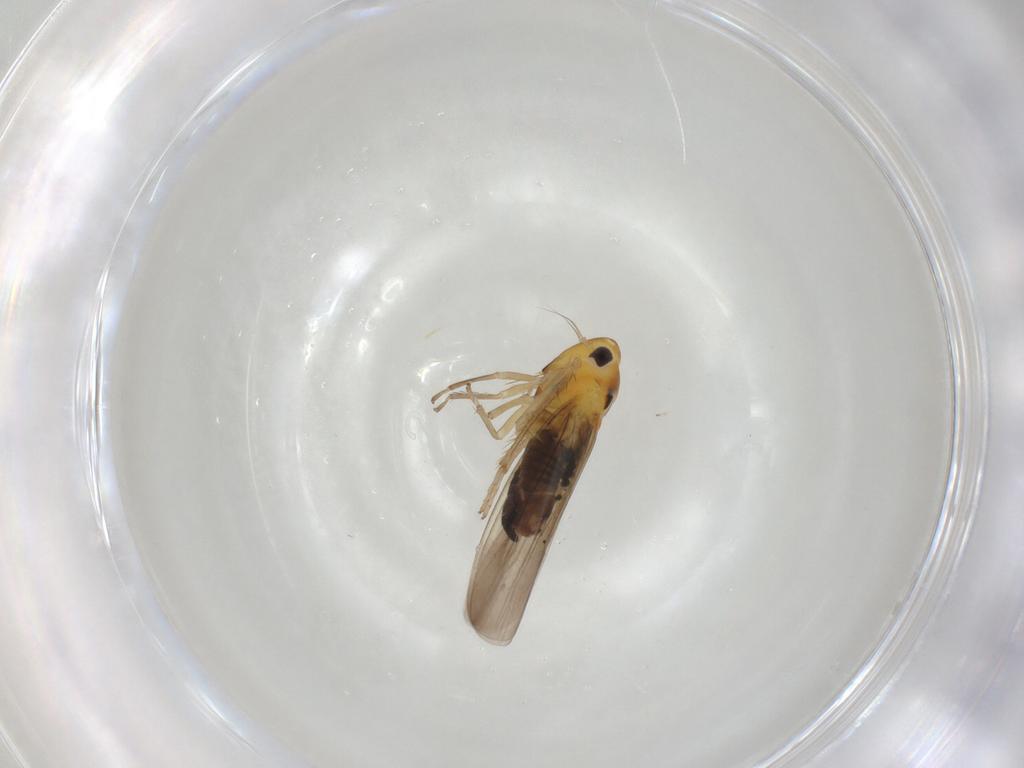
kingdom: Animalia
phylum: Arthropoda
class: Insecta
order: Hemiptera
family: Cicadellidae
